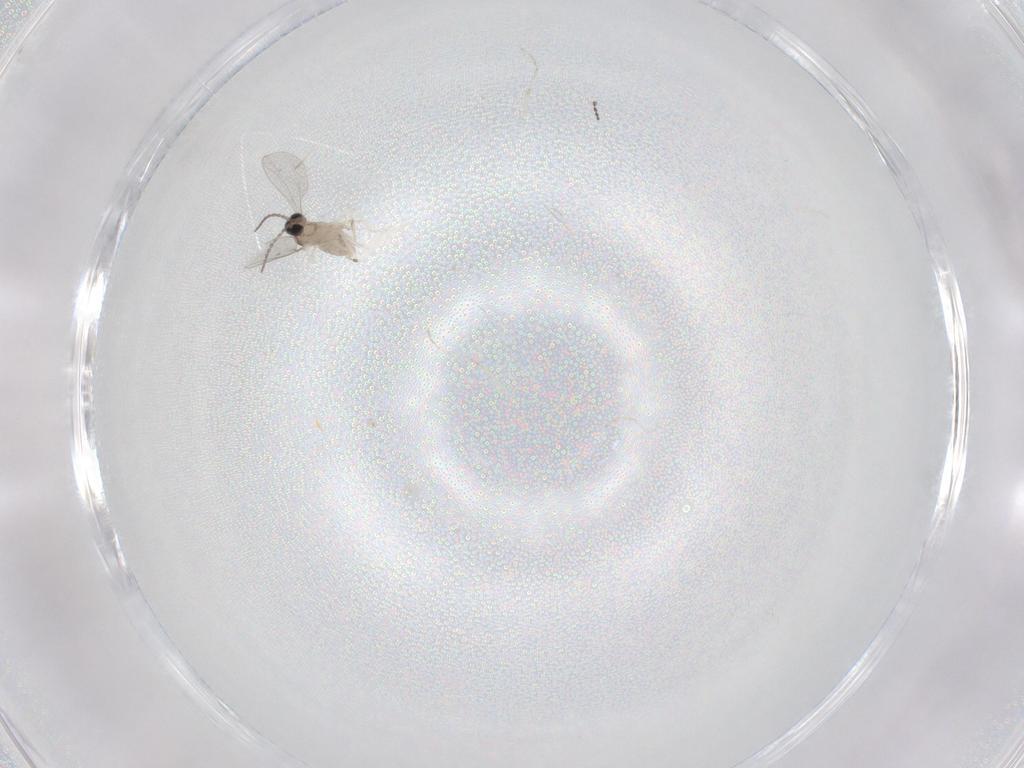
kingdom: Animalia
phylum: Arthropoda
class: Insecta
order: Diptera
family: Cecidomyiidae
